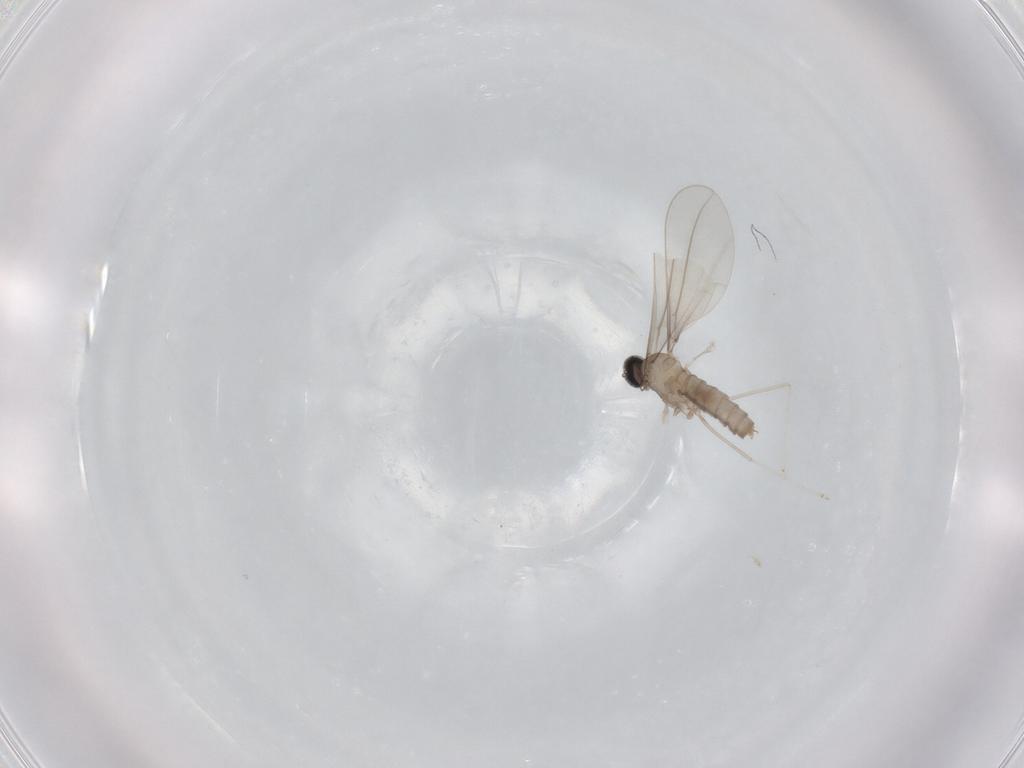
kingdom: Animalia
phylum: Arthropoda
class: Insecta
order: Diptera
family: Cecidomyiidae
